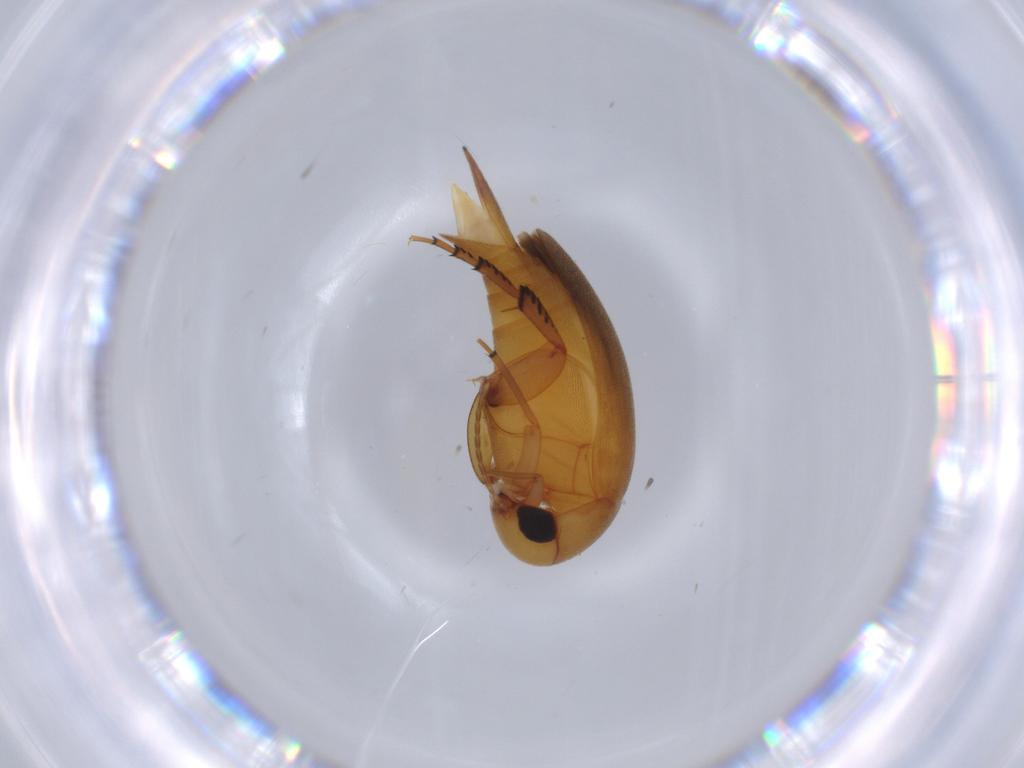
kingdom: Animalia
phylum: Arthropoda
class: Insecta
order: Coleoptera
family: Mordellidae
